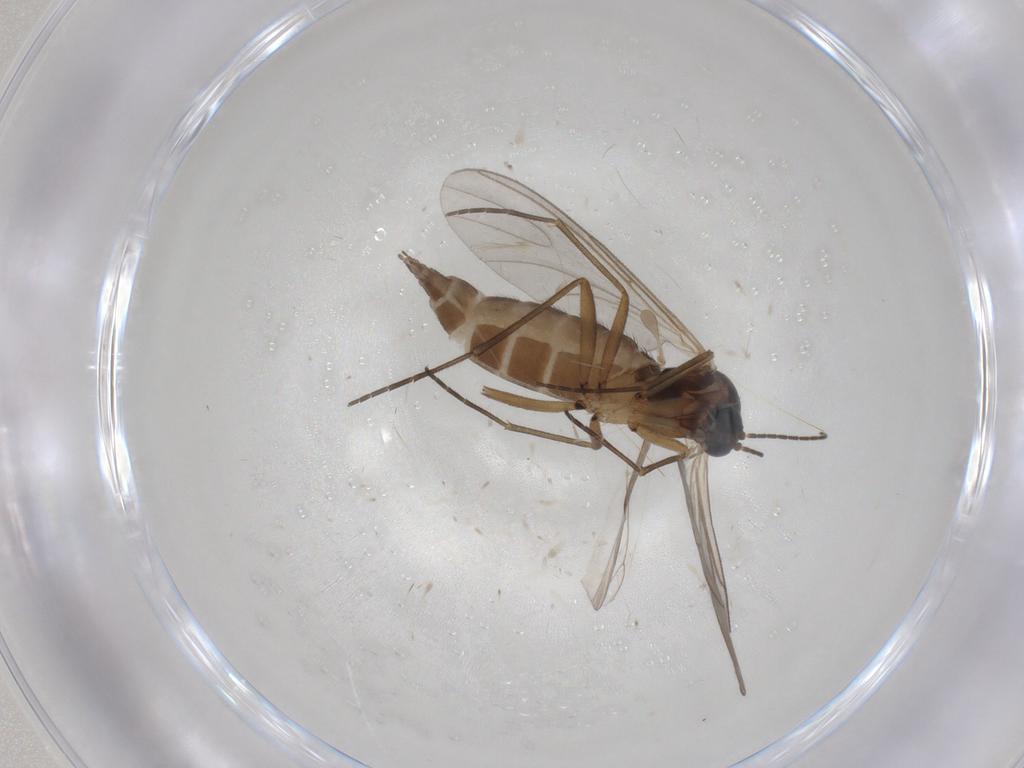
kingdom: Animalia
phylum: Arthropoda
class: Insecta
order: Diptera
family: Sciaridae
